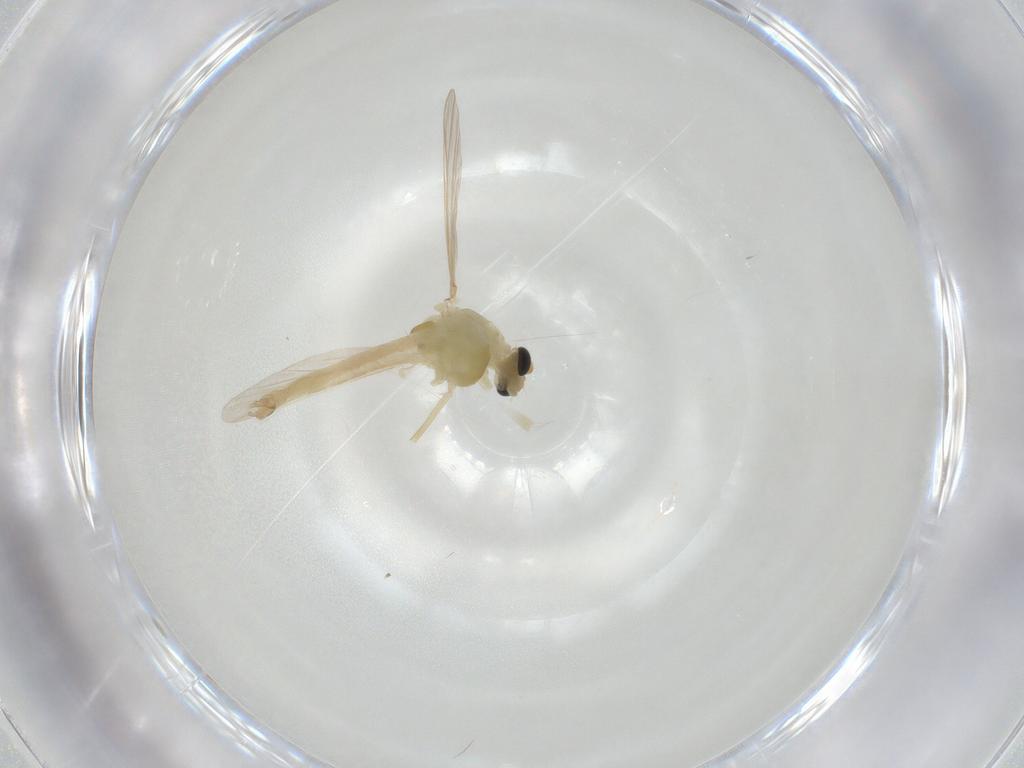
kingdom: Animalia
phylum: Arthropoda
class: Insecta
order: Diptera
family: Chironomidae
